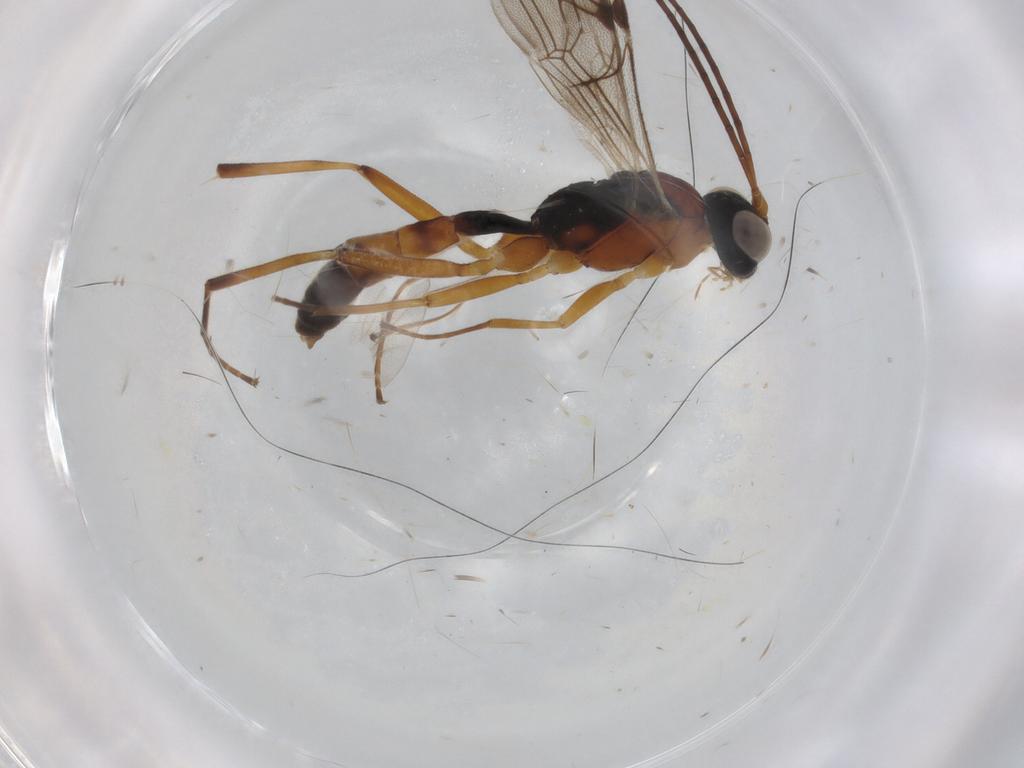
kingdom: Animalia
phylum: Arthropoda
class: Insecta
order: Hymenoptera
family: Ichneumonidae
